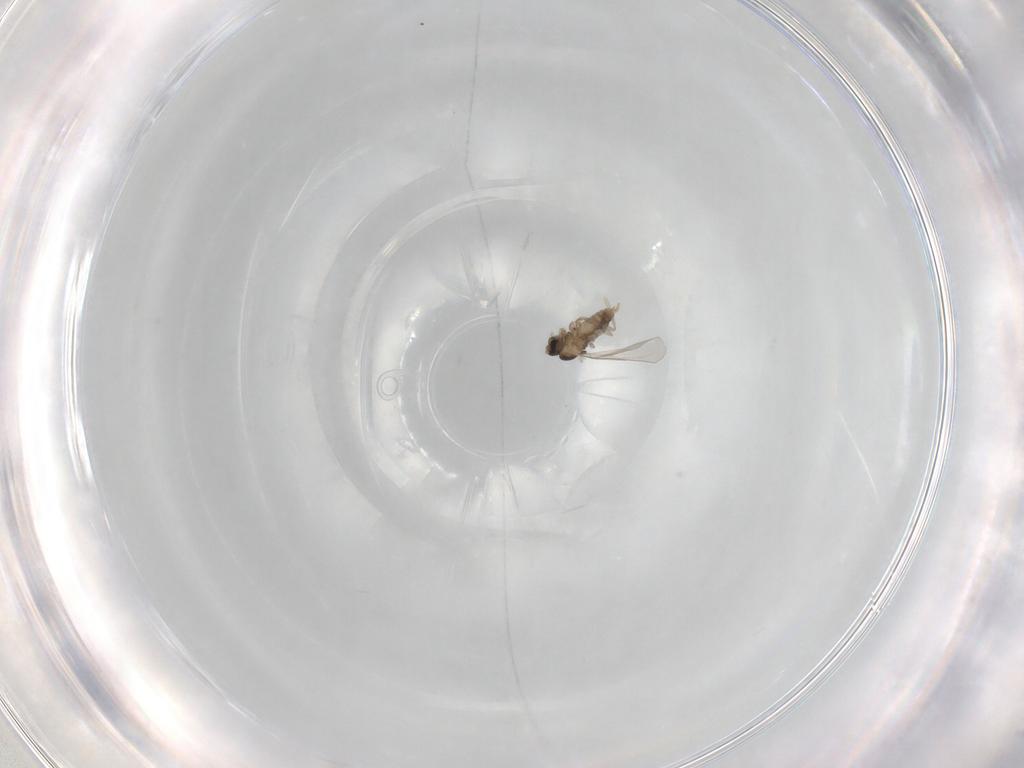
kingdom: Animalia
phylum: Arthropoda
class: Insecta
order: Diptera
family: Cecidomyiidae
